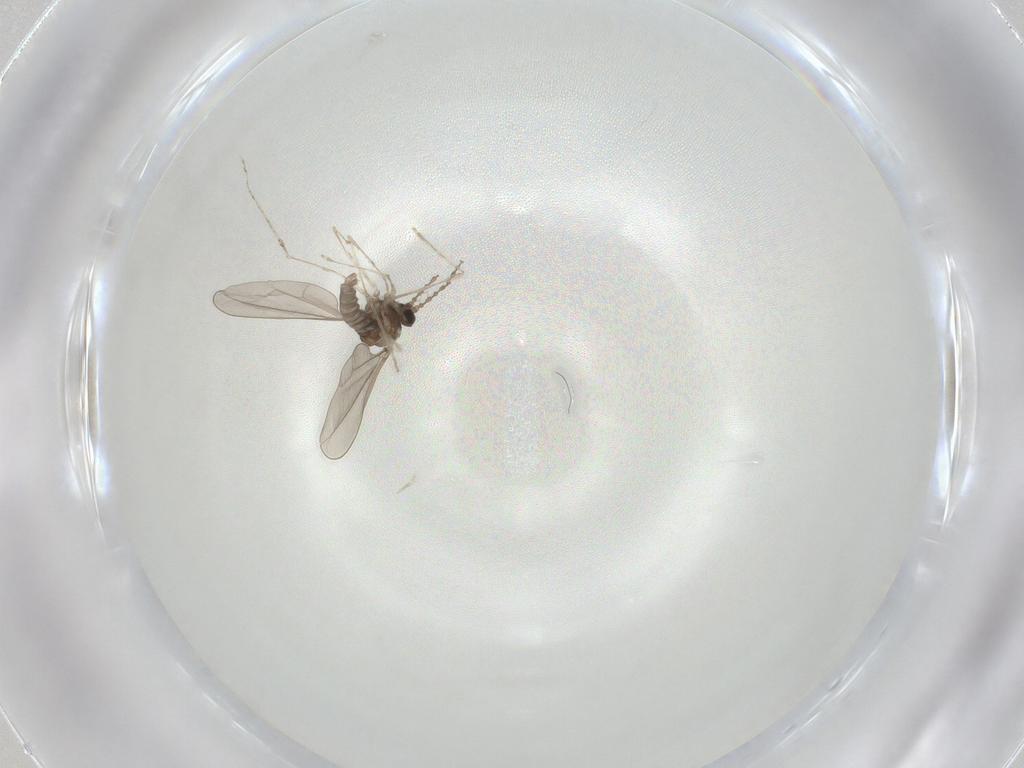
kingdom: Animalia
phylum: Arthropoda
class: Insecta
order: Diptera
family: Cecidomyiidae
